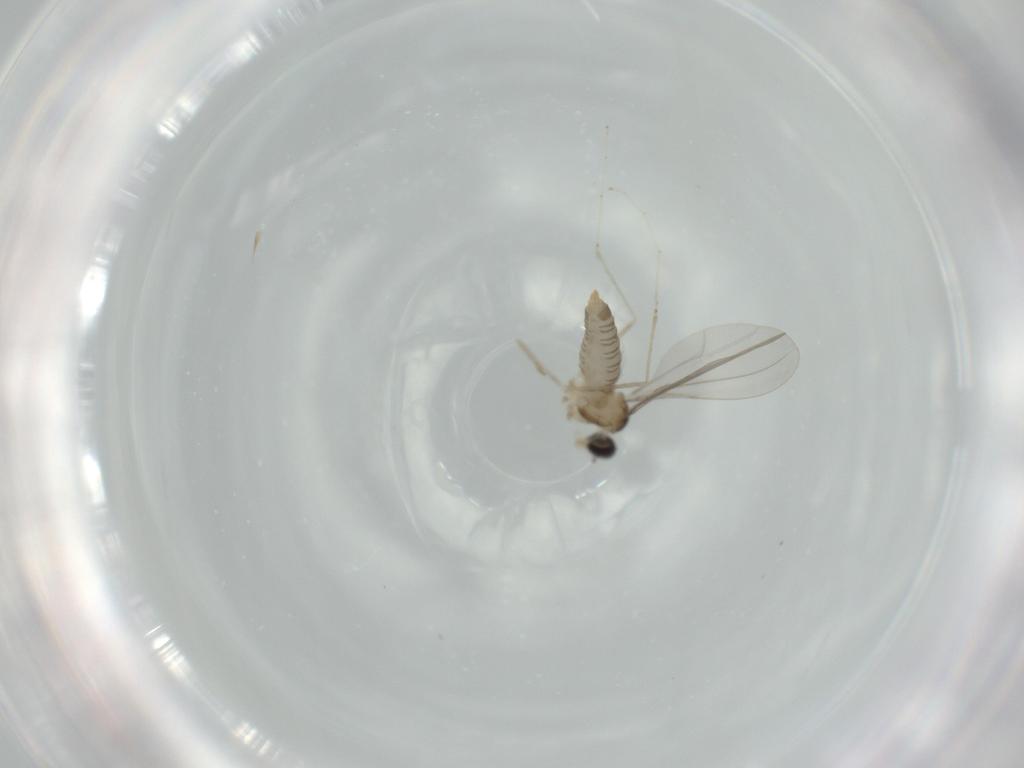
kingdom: Animalia
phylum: Arthropoda
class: Insecta
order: Diptera
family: Cecidomyiidae
